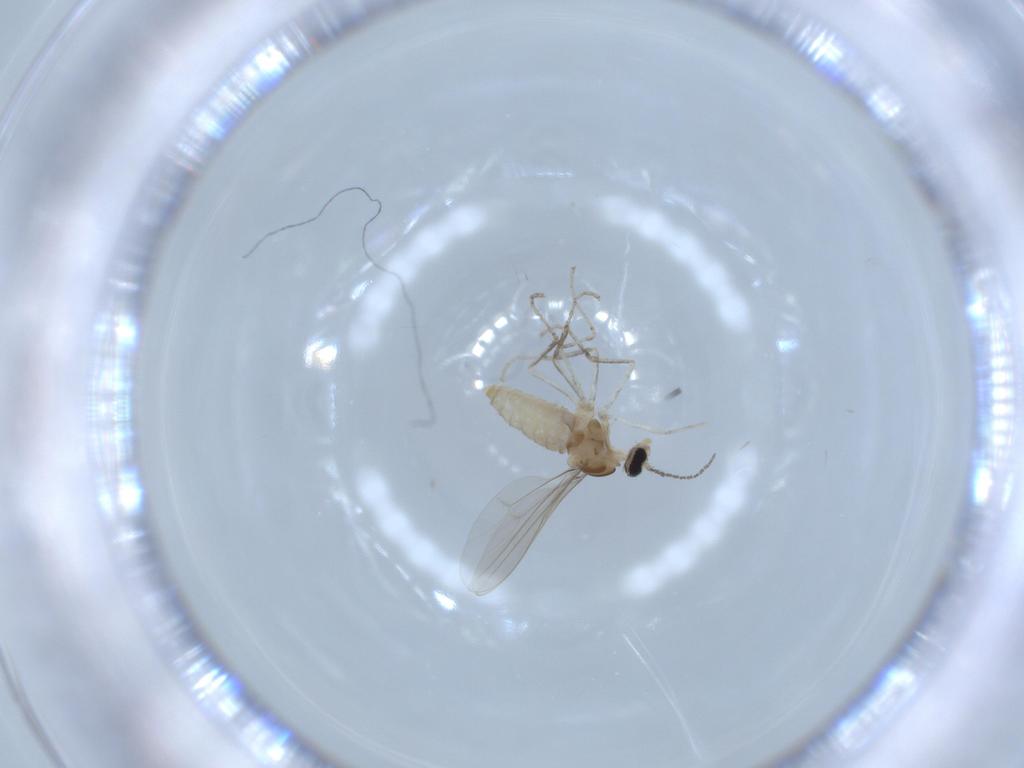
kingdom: Animalia
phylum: Arthropoda
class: Insecta
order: Diptera
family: Cecidomyiidae
